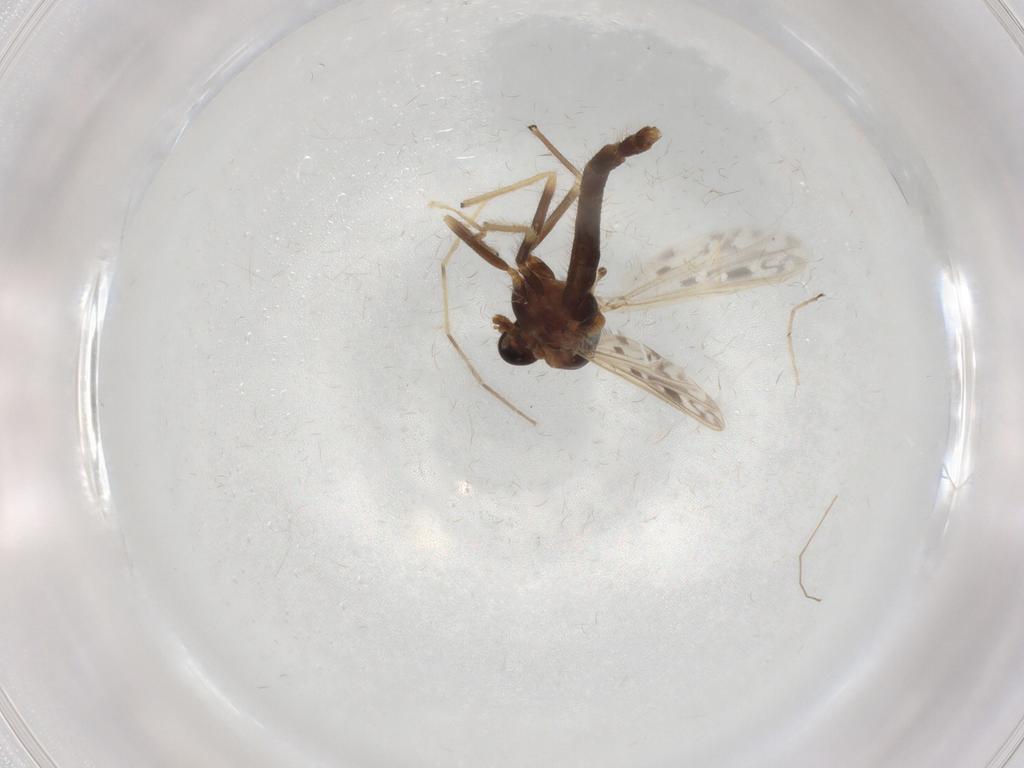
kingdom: Animalia
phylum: Arthropoda
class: Insecta
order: Diptera
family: Chironomidae
